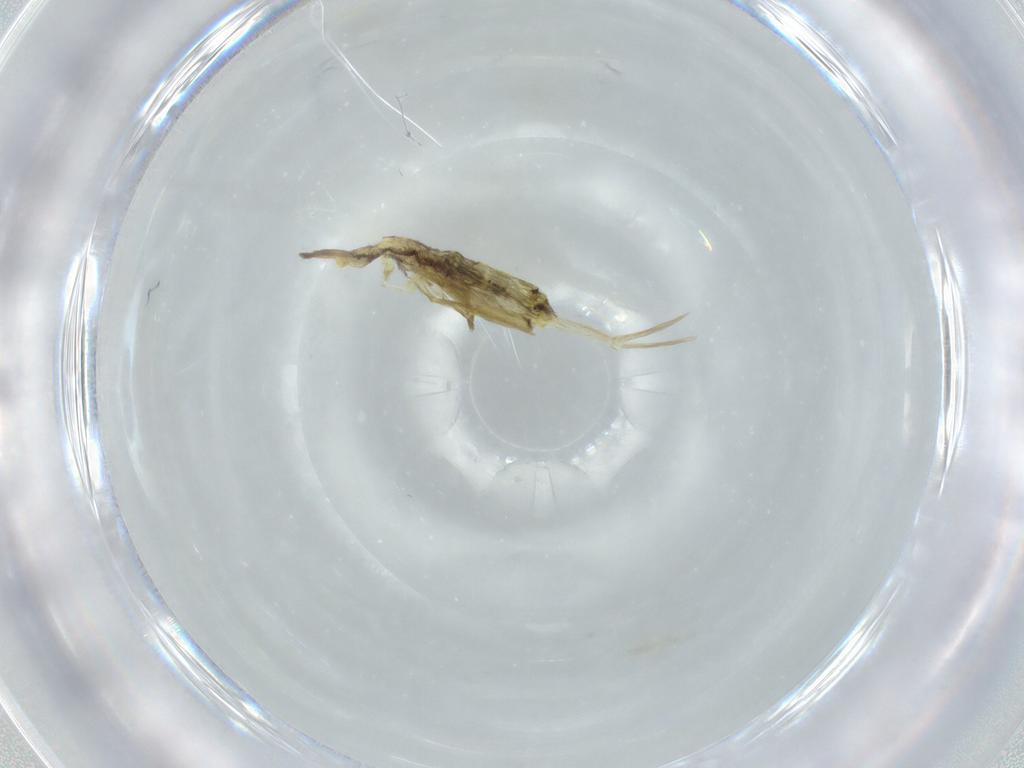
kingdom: Animalia
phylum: Arthropoda
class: Collembola
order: Entomobryomorpha
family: Entomobryidae
